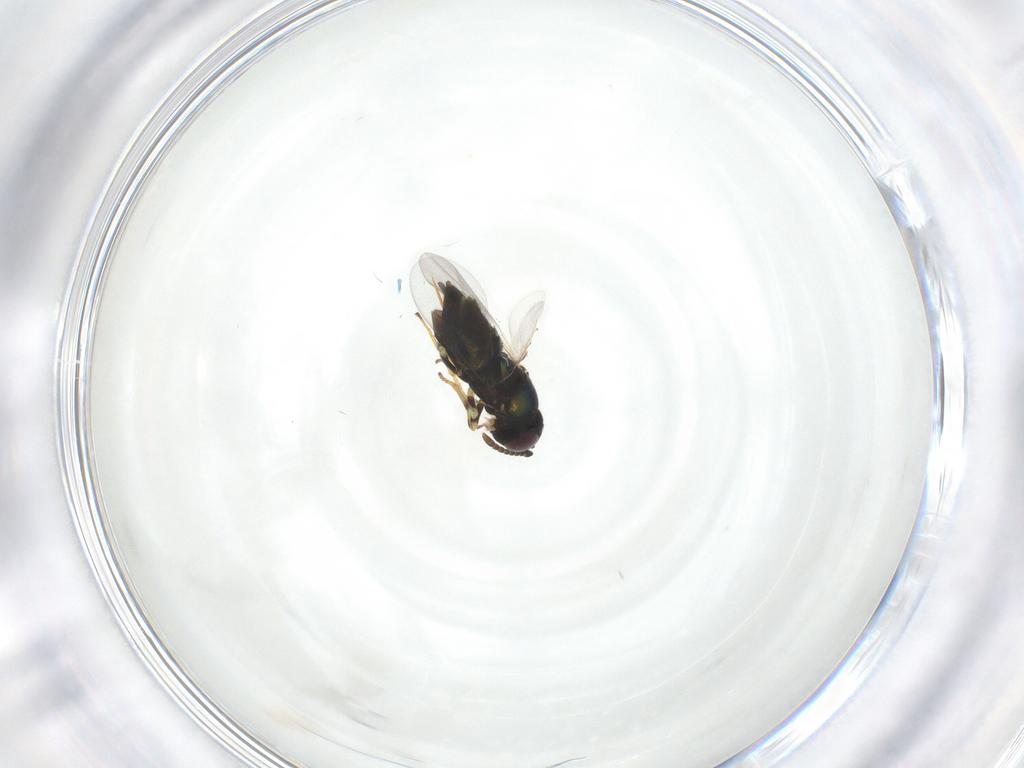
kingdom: Animalia
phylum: Arthropoda
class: Insecta
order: Hymenoptera
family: Encyrtidae
